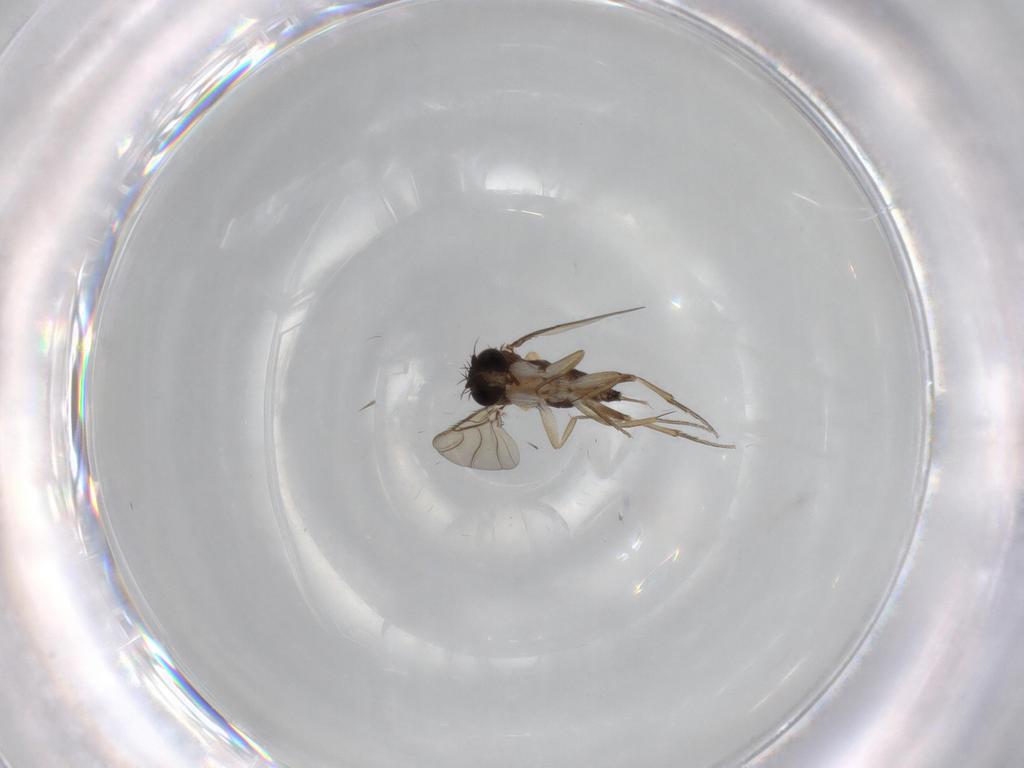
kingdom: Animalia
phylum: Arthropoda
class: Insecta
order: Diptera
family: Phoridae
